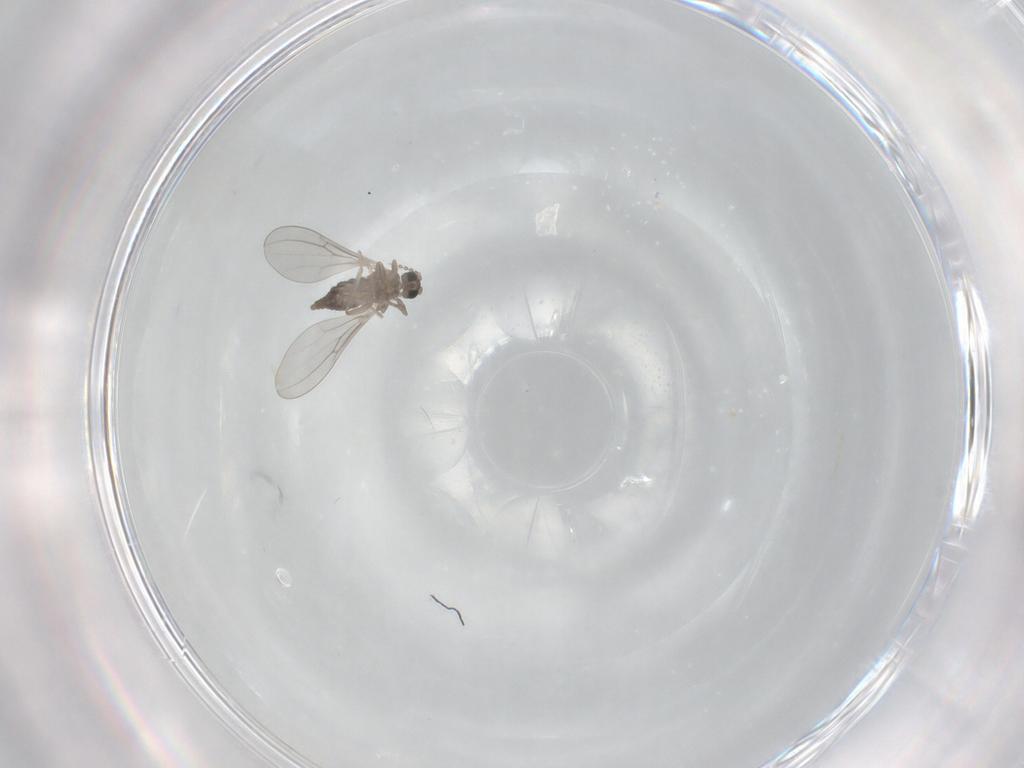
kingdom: Animalia
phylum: Arthropoda
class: Insecta
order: Diptera
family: Cecidomyiidae
